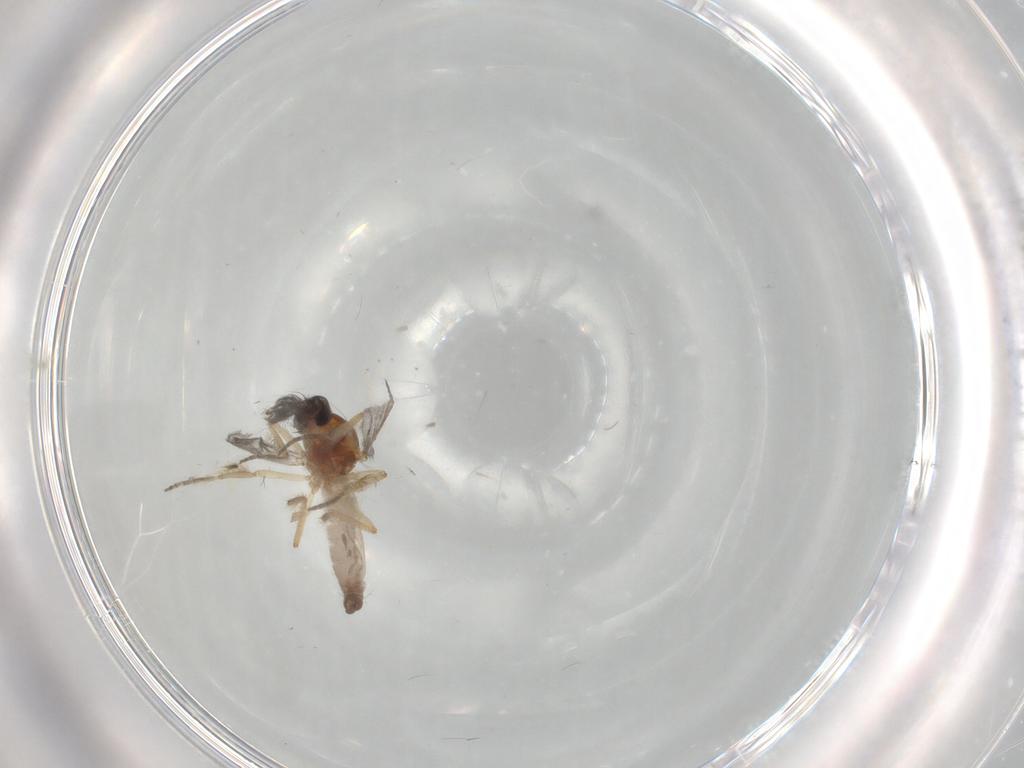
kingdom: Animalia
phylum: Arthropoda
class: Insecta
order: Diptera
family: Ceratopogonidae
